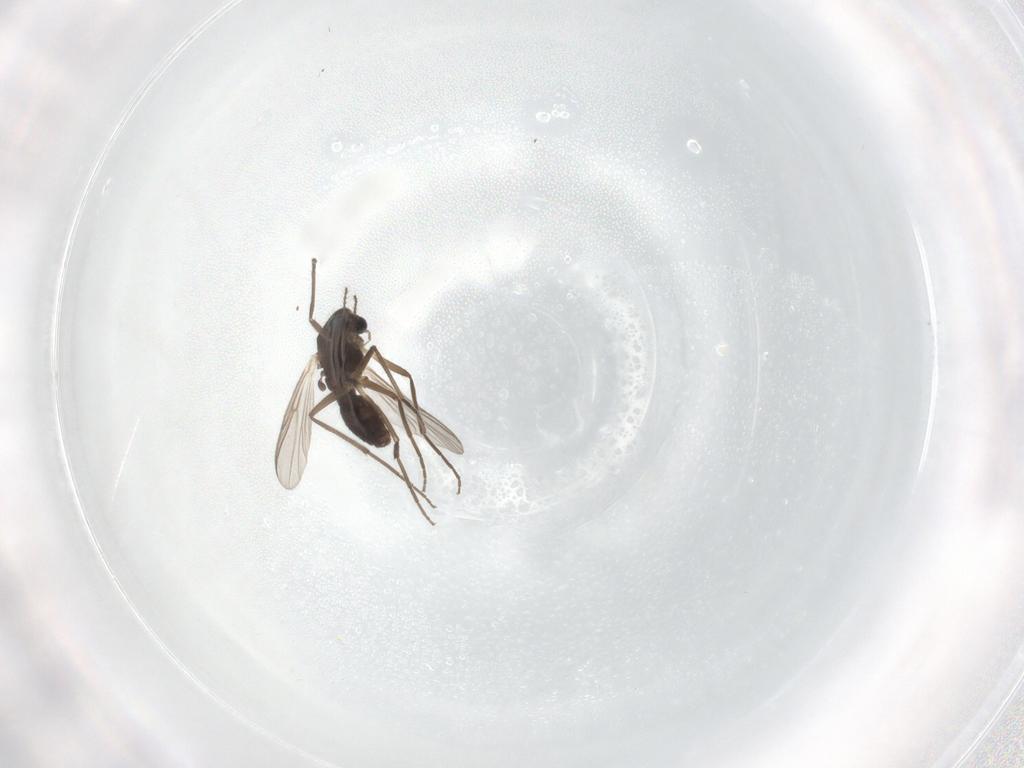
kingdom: Animalia
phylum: Arthropoda
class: Insecta
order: Diptera
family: Chironomidae
